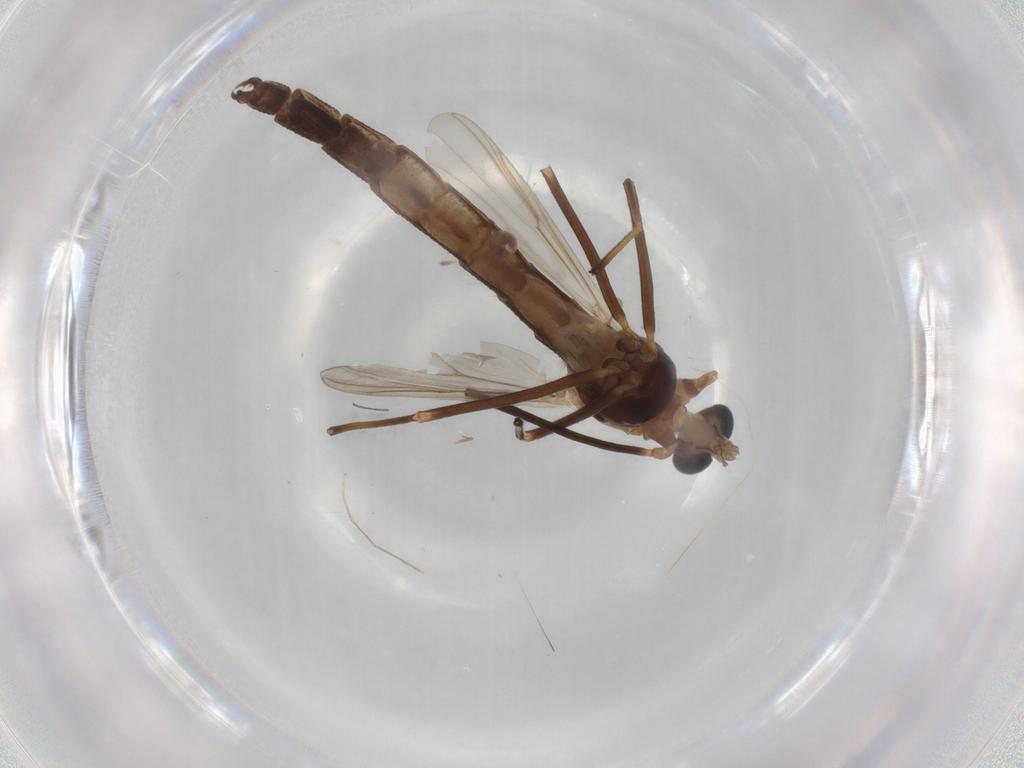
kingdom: Animalia
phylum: Arthropoda
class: Insecta
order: Diptera
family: Chironomidae
